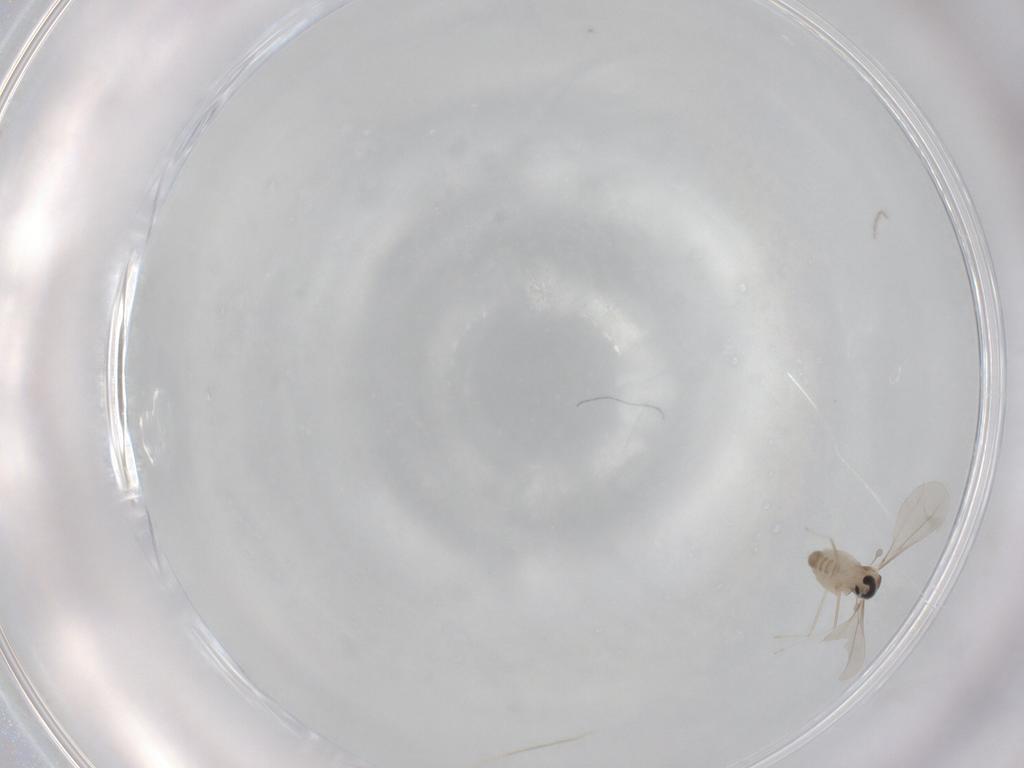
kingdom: Animalia
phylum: Arthropoda
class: Insecta
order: Diptera
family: Cecidomyiidae
